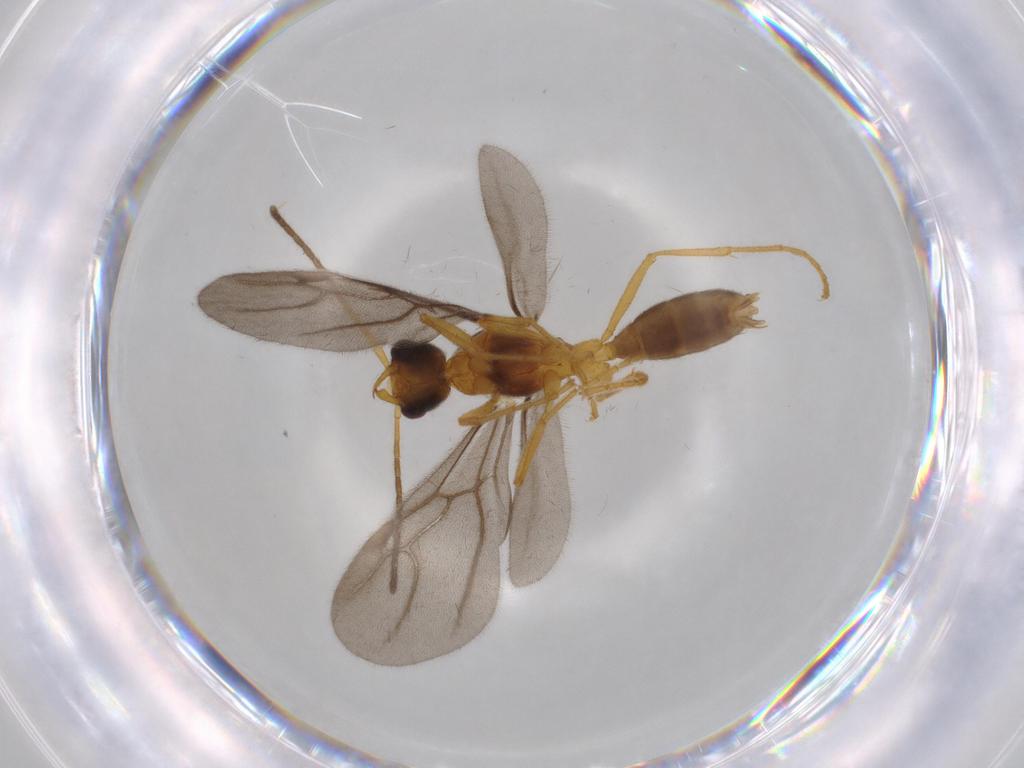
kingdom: Animalia
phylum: Arthropoda
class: Insecta
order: Hymenoptera
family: Formicidae
